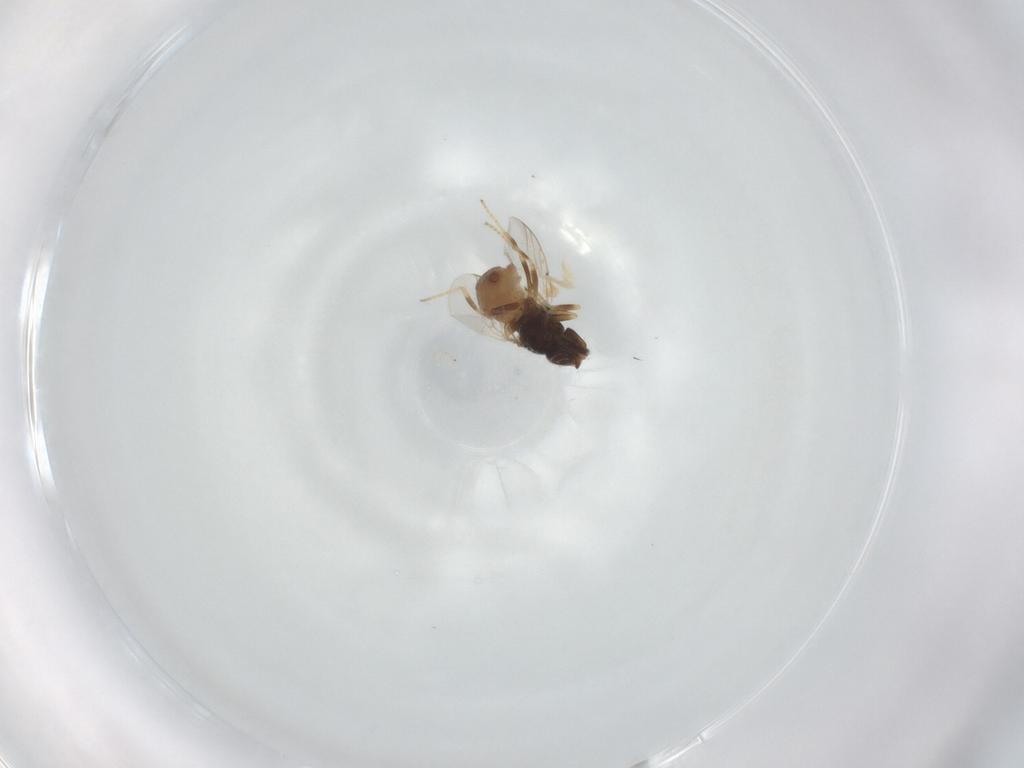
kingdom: Animalia
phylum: Arthropoda
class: Insecta
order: Diptera
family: Chloropidae
